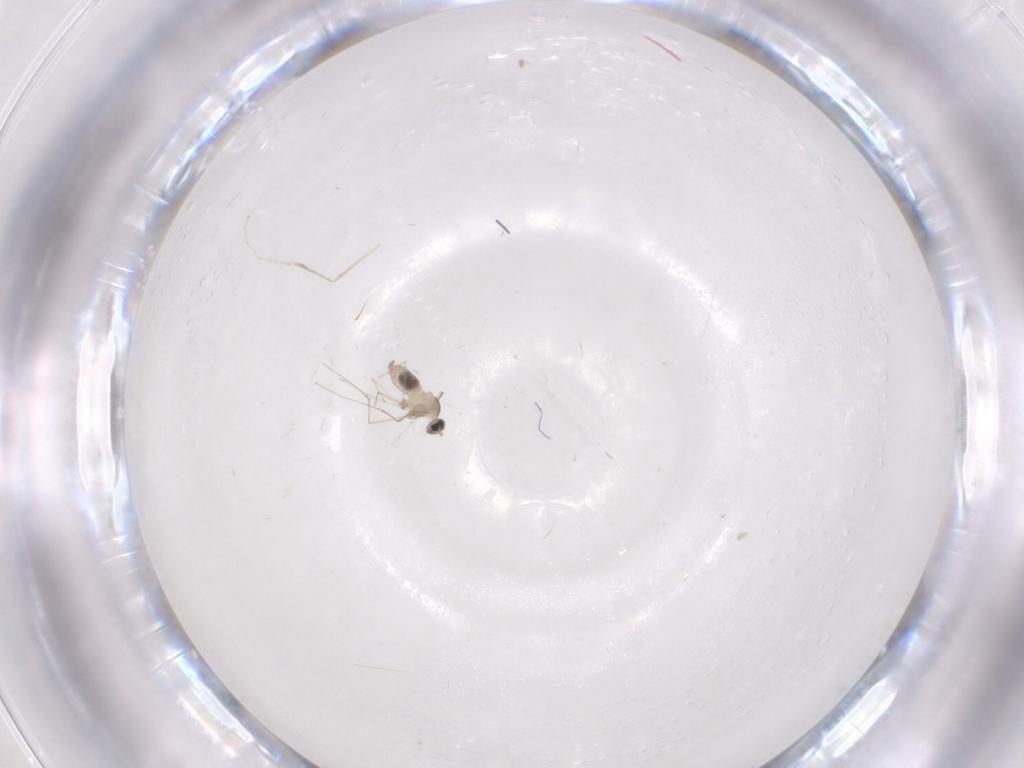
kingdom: Animalia
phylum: Arthropoda
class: Insecta
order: Diptera
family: Cecidomyiidae
